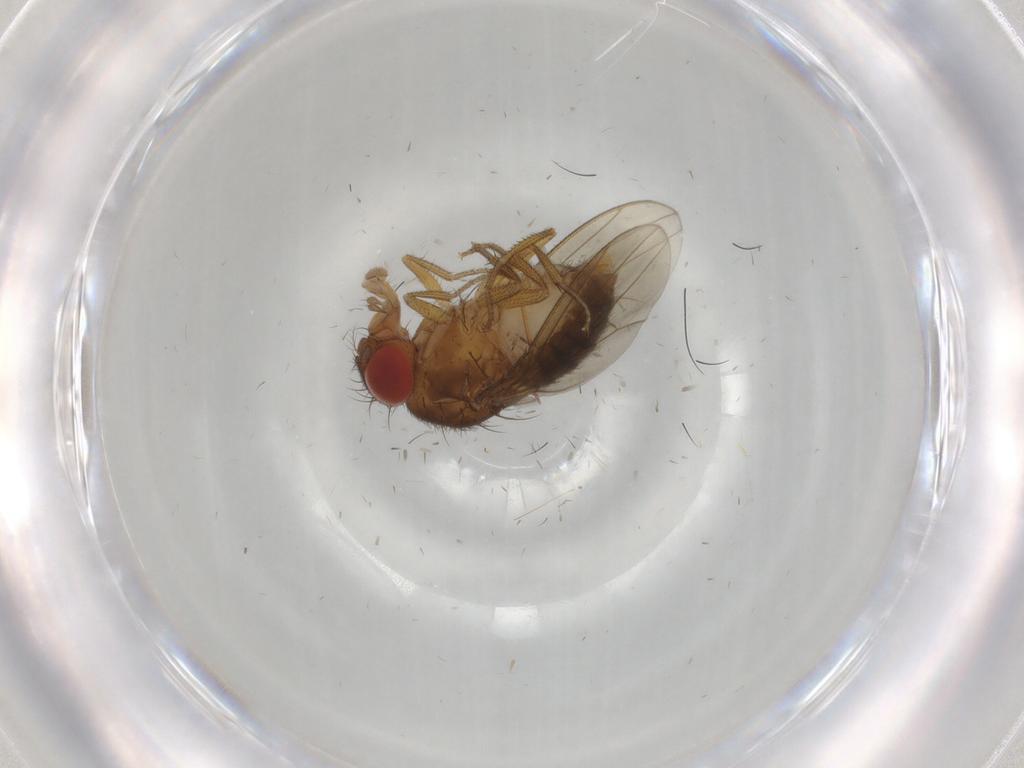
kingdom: Animalia
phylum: Arthropoda
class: Insecta
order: Diptera
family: Drosophilidae
